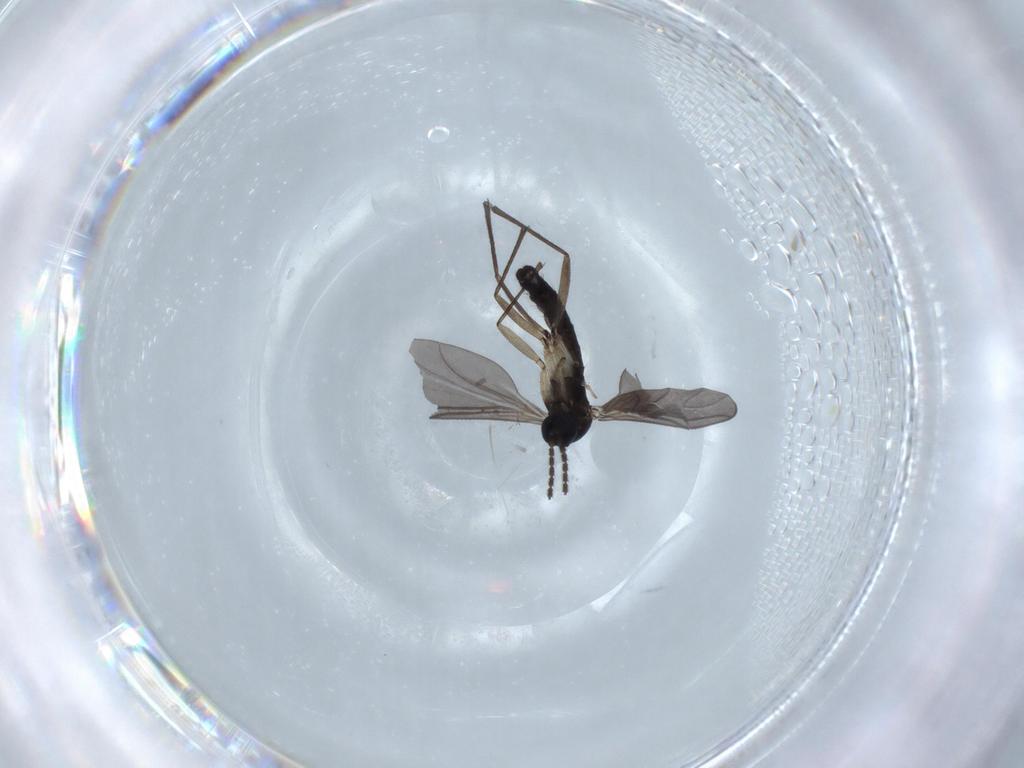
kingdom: Animalia
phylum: Arthropoda
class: Insecta
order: Diptera
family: Sciaridae
